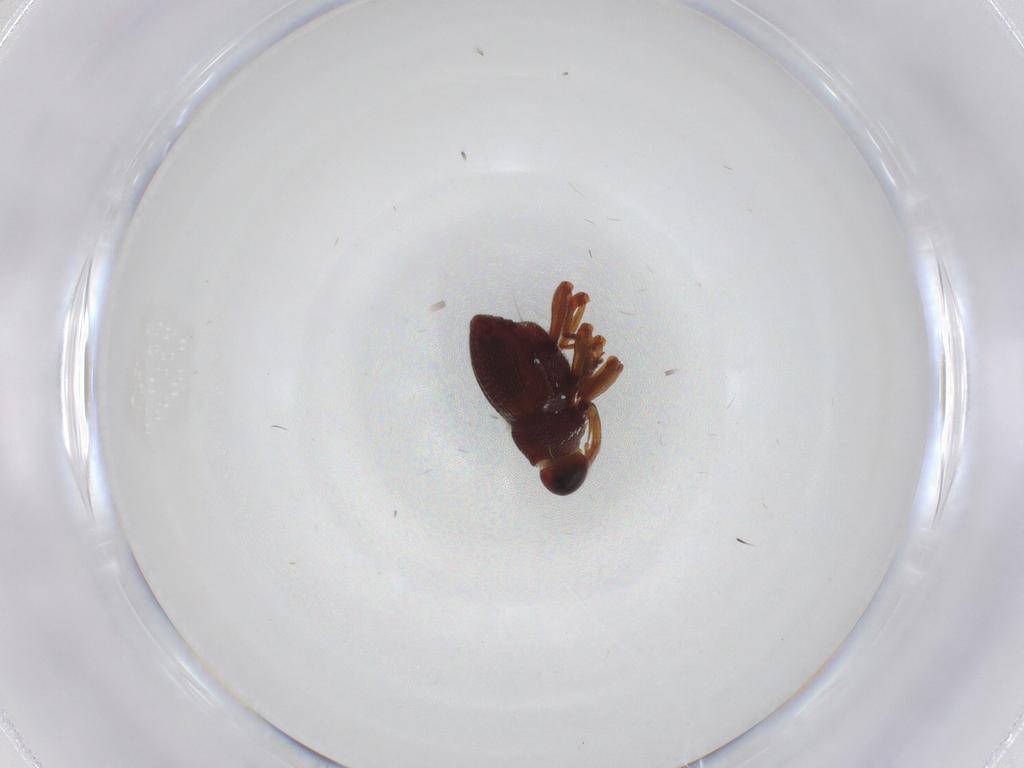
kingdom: Animalia
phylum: Arthropoda
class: Insecta
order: Coleoptera
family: Curculionidae
